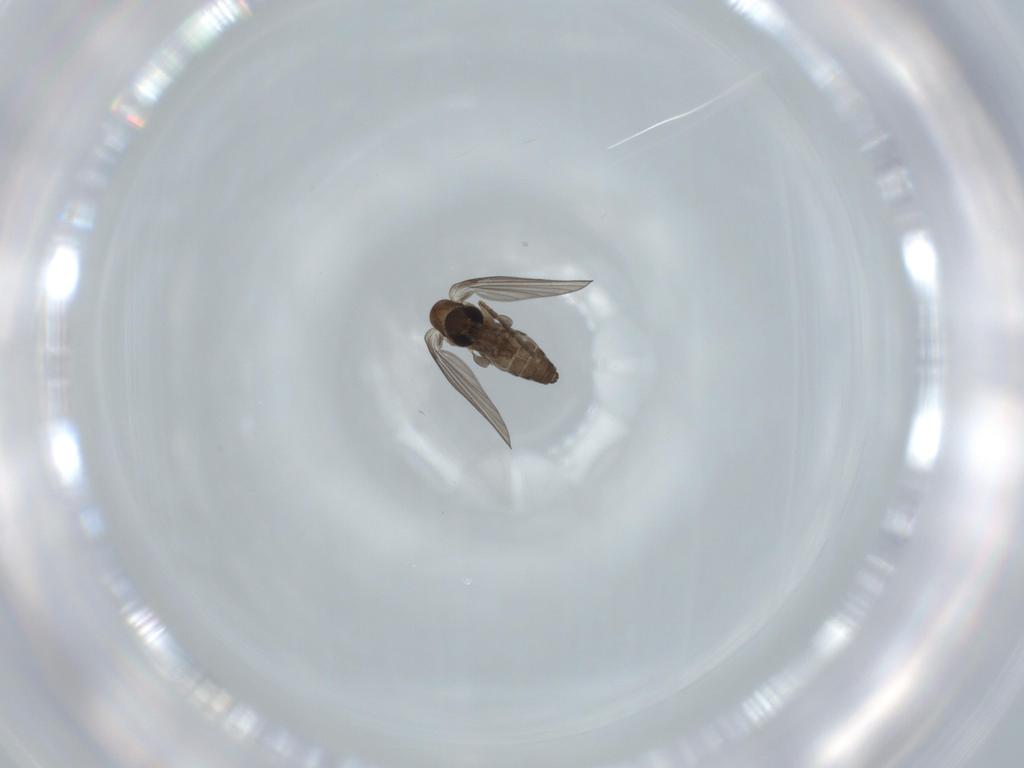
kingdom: Animalia
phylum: Arthropoda
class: Insecta
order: Diptera
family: Psychodidae
